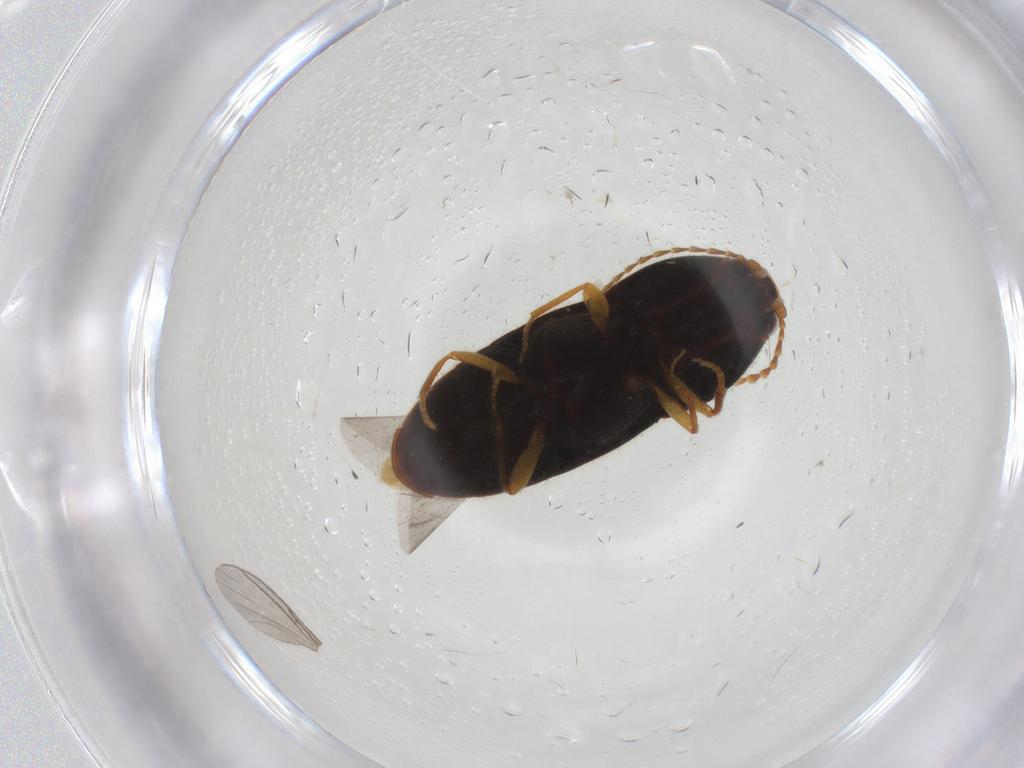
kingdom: Animalia
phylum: Arthropoda
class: Insecta
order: Coleoptera
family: Elateridae
